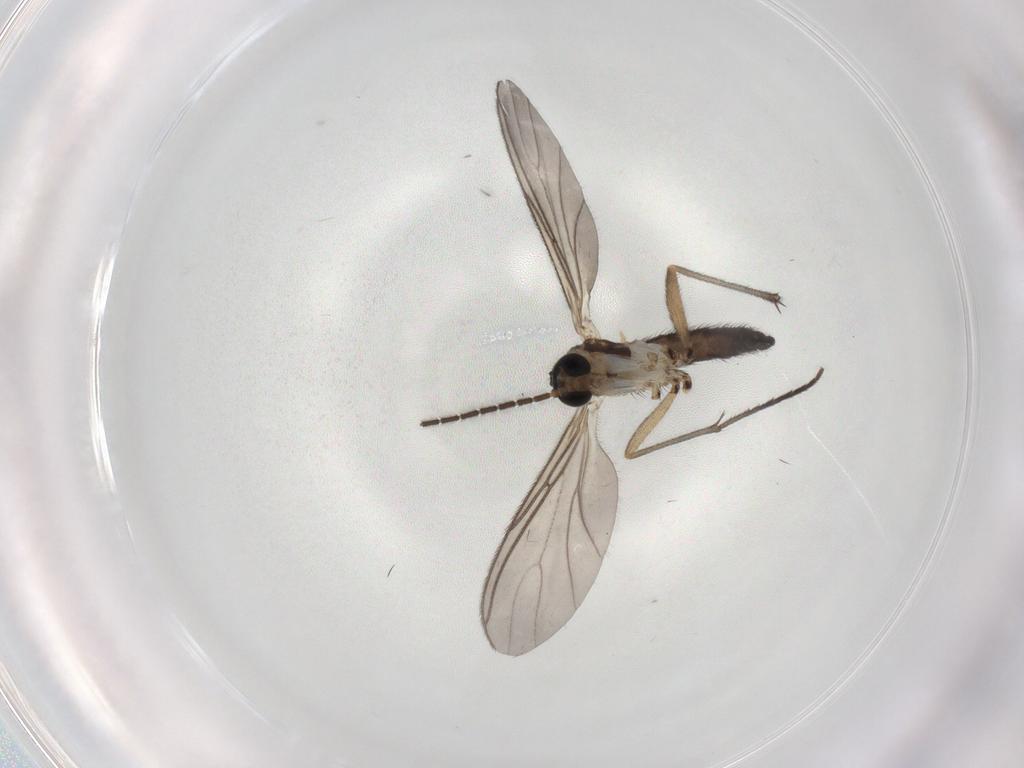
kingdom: Animalia
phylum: Arthropoda
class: Insecta
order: Diptera
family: Sciaridae
